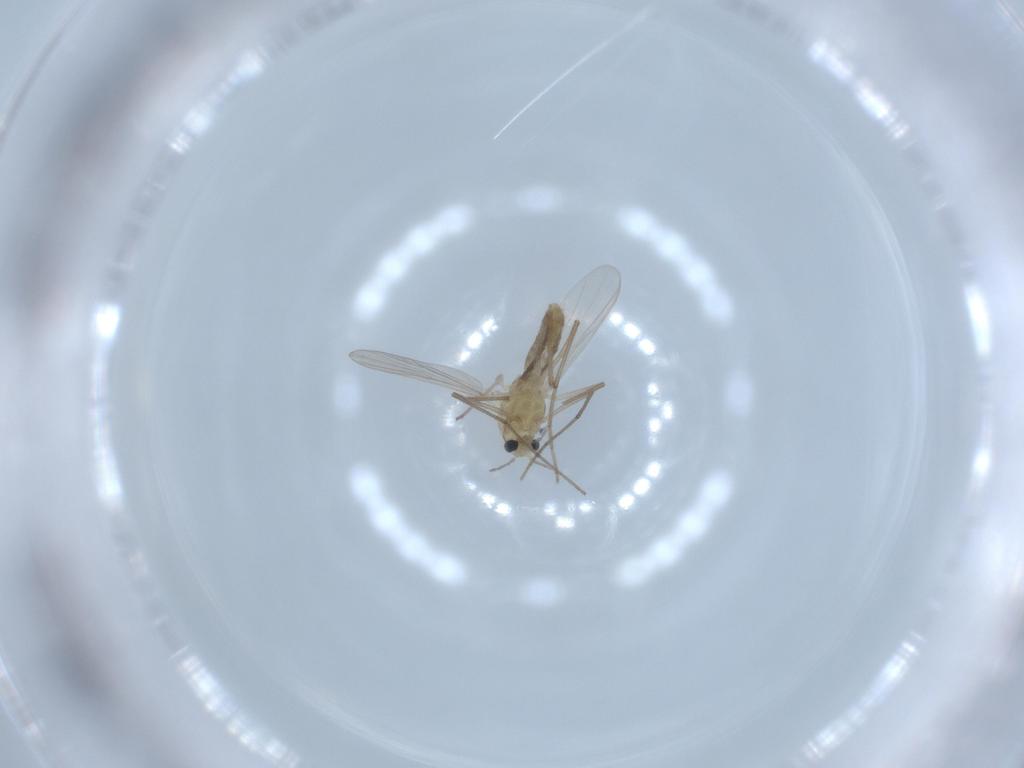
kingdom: Animalia
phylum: Arthropoda
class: Insecta
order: Diptera
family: Chironomidae
